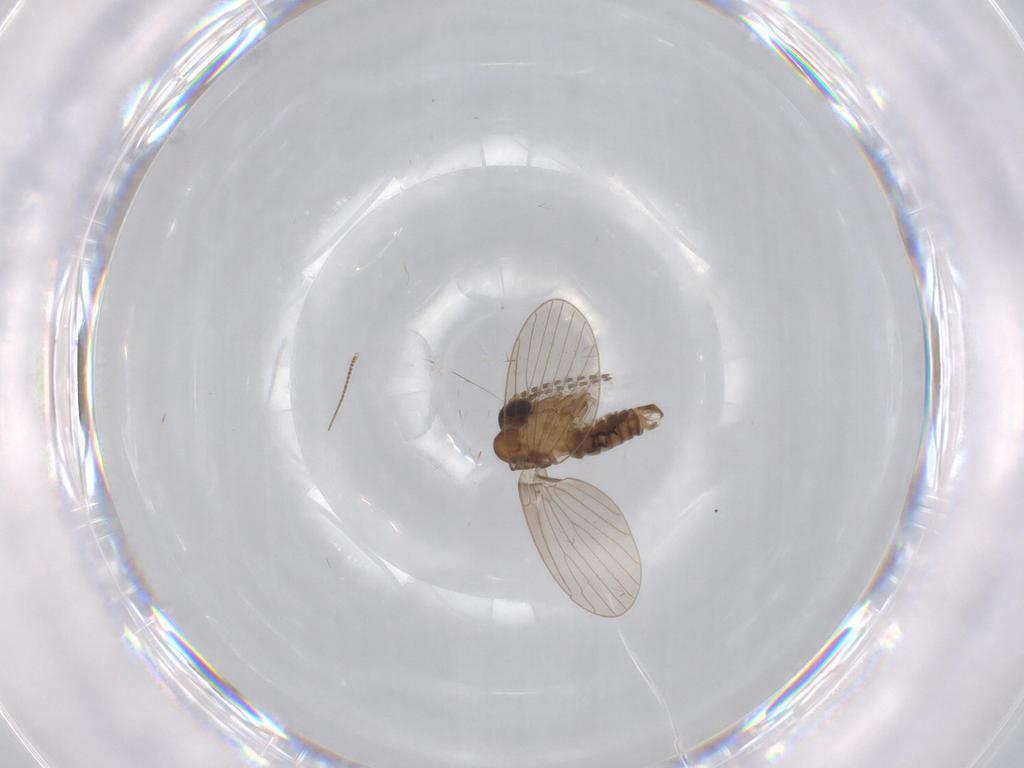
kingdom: Animalia
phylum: Arthropoda
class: Insecta
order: Diptera
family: Psychodidae
